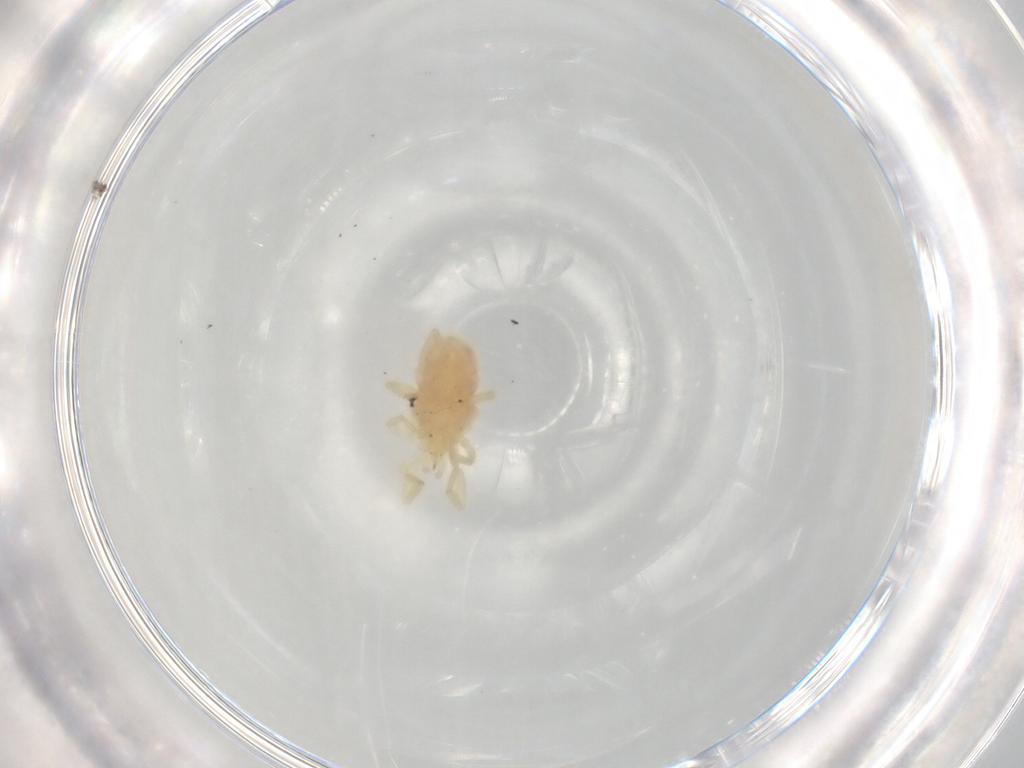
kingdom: Animalia
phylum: Arthropoda
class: Arachnida
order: Trombidiformes
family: Erythraeidae
